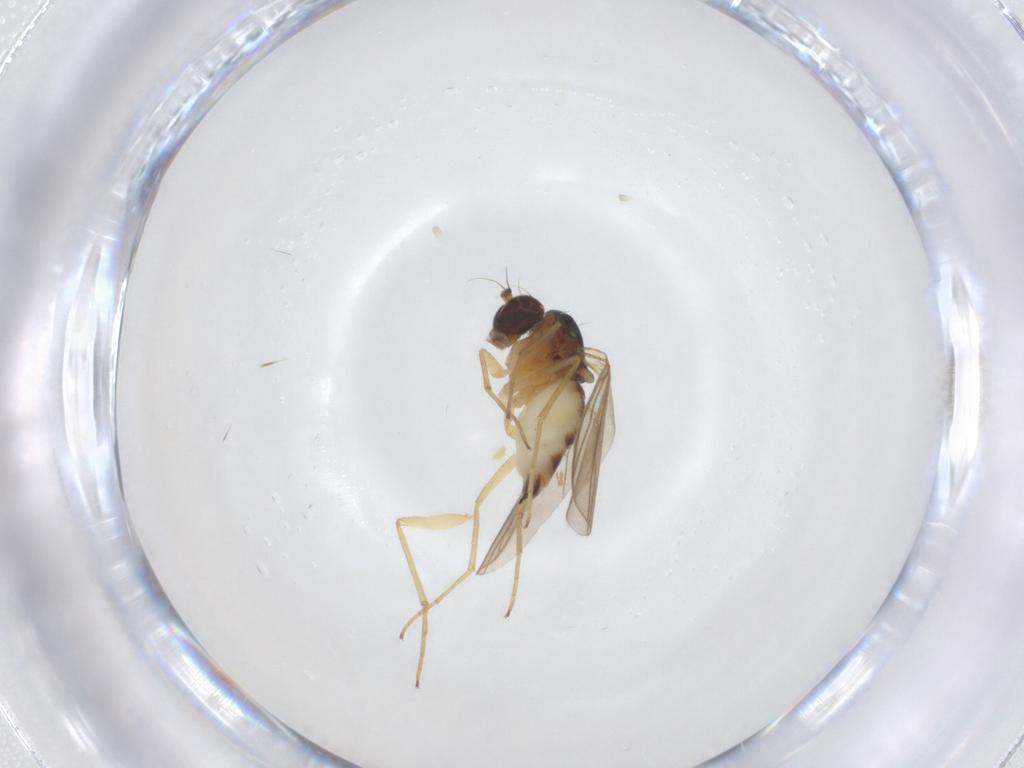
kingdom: Animalia
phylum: Arthropoda
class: Insecta
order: Diptera
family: Dolichopodidae
